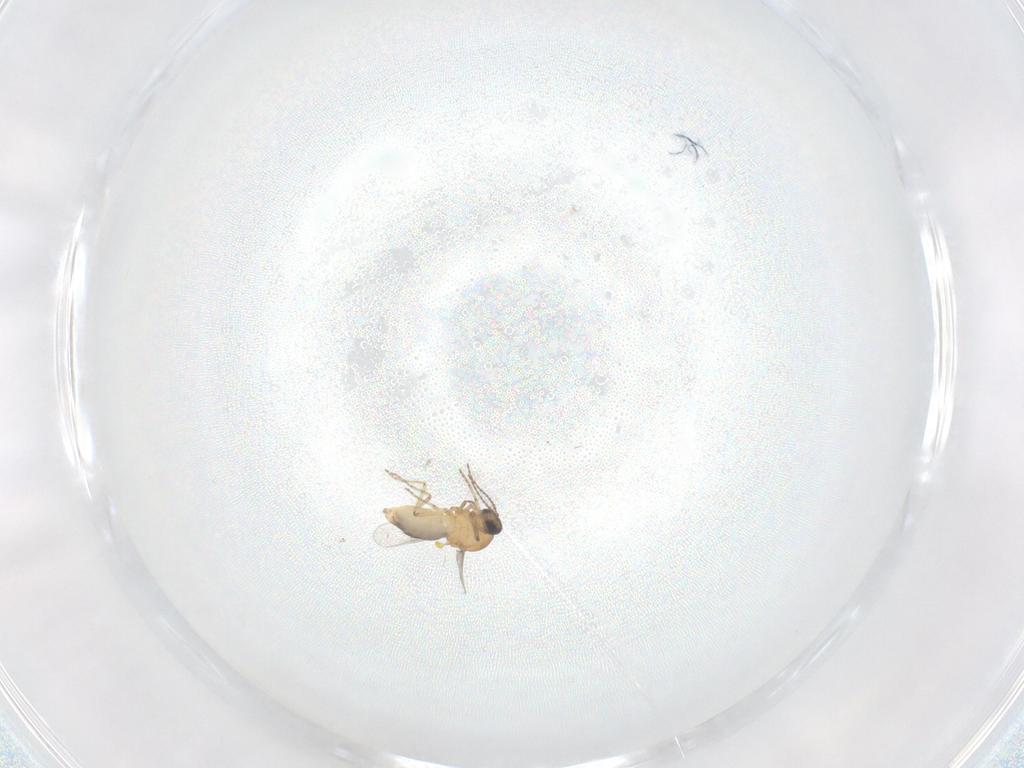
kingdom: Animalia
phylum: Arthropoda
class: Insecta
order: Diptera
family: Ceratopogonidae
